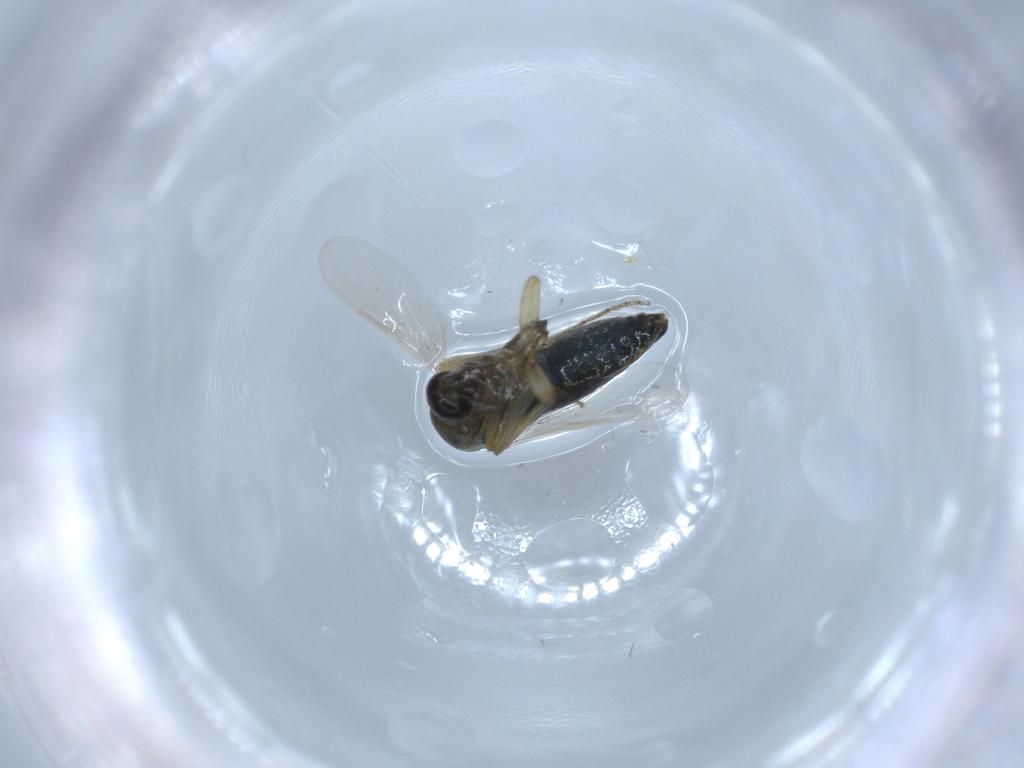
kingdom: Animalia
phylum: Arthropoda
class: Insecta
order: Diptera
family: Ceratopogonidae
